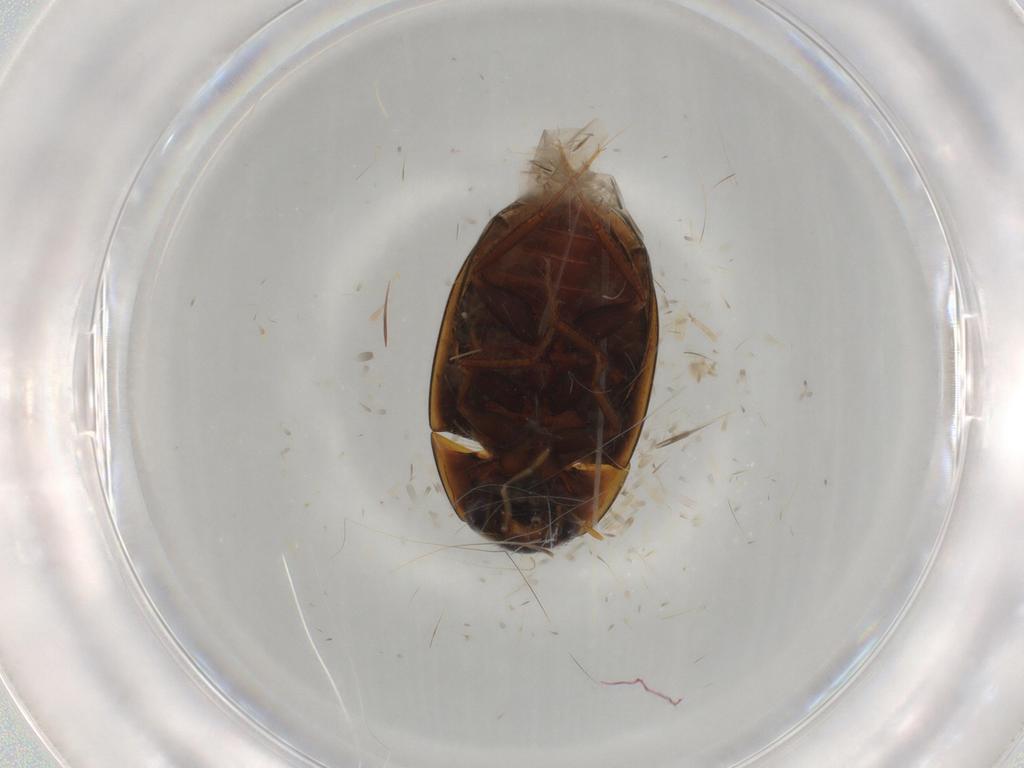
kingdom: Animalia
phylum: Arthropoda
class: Insecta
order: Coleoptera
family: Hydrophilidae
